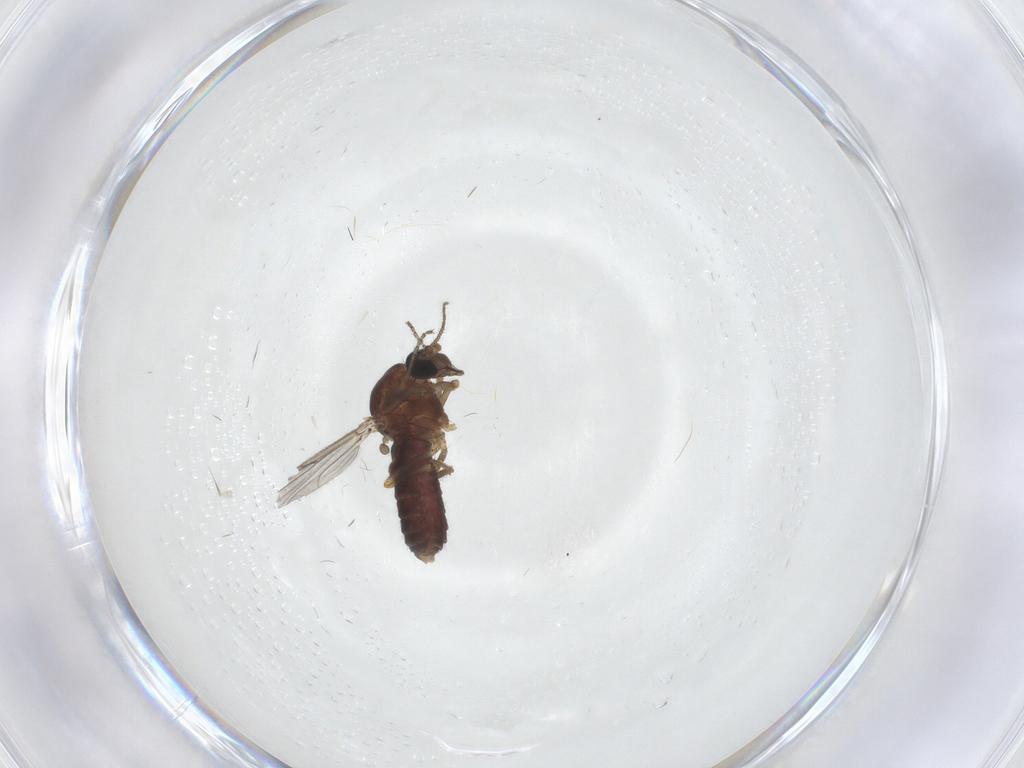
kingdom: Animalia
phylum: Arthropoda
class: Insecta
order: Diptera
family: Ceratopogonidae
